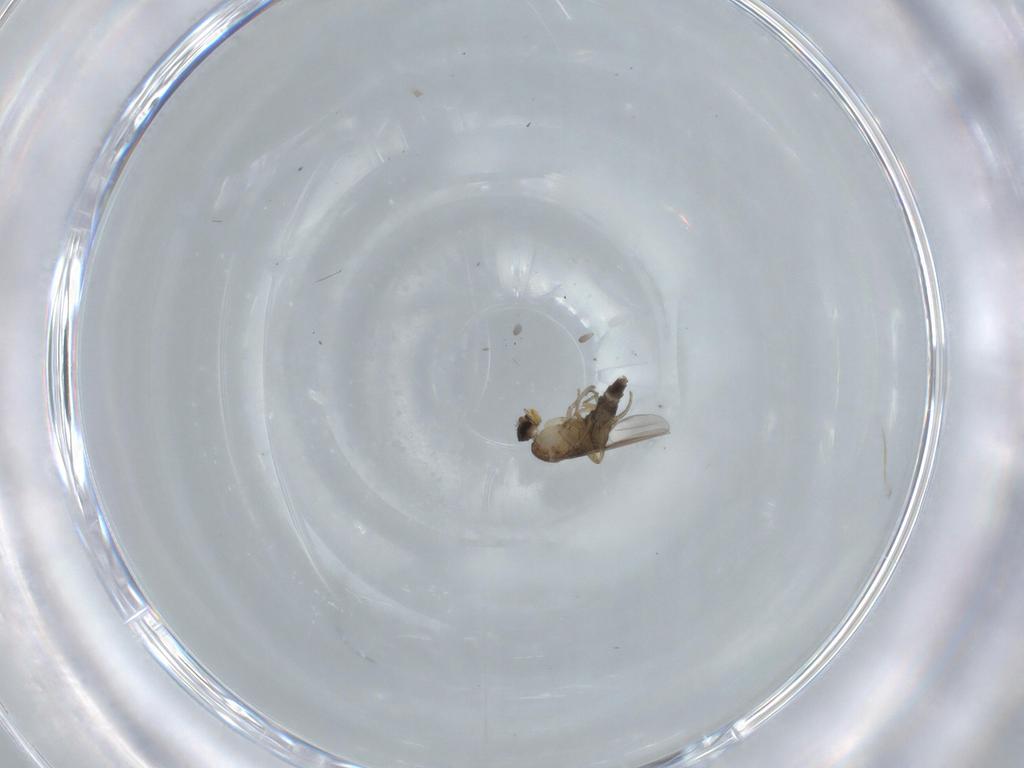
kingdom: Animalia
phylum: Arthropoda
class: Insecta
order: Diptera
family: Phoridae
